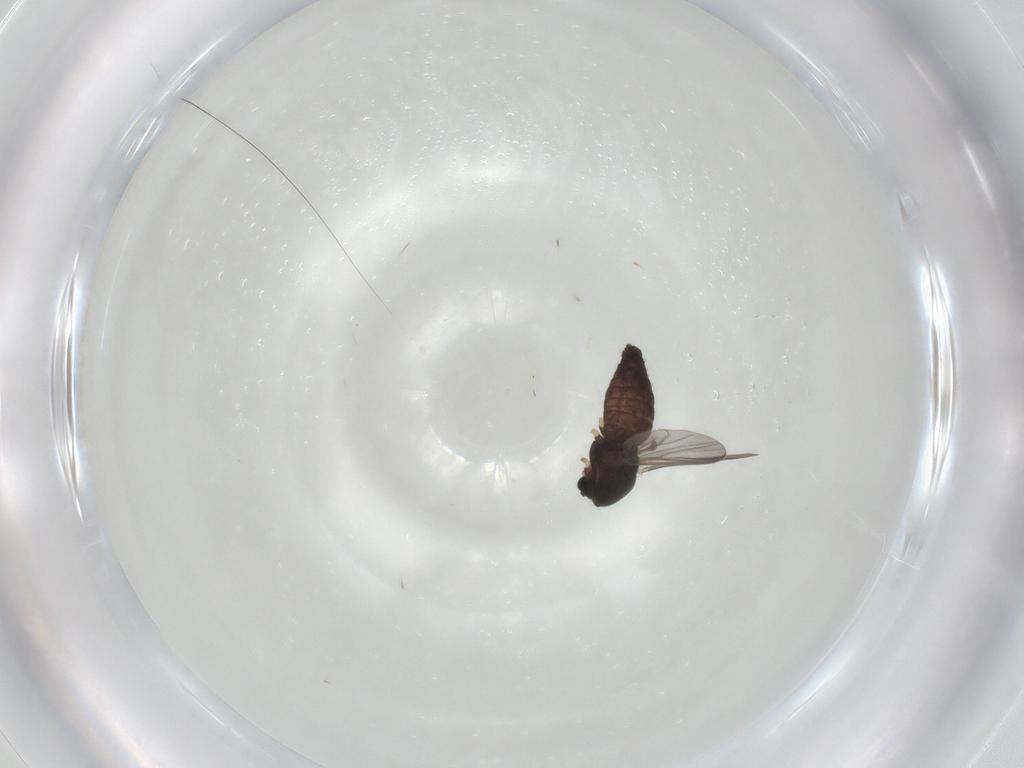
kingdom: Animalia
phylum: Arthropoda
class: Insecta
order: Diptera
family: Chironomidae
